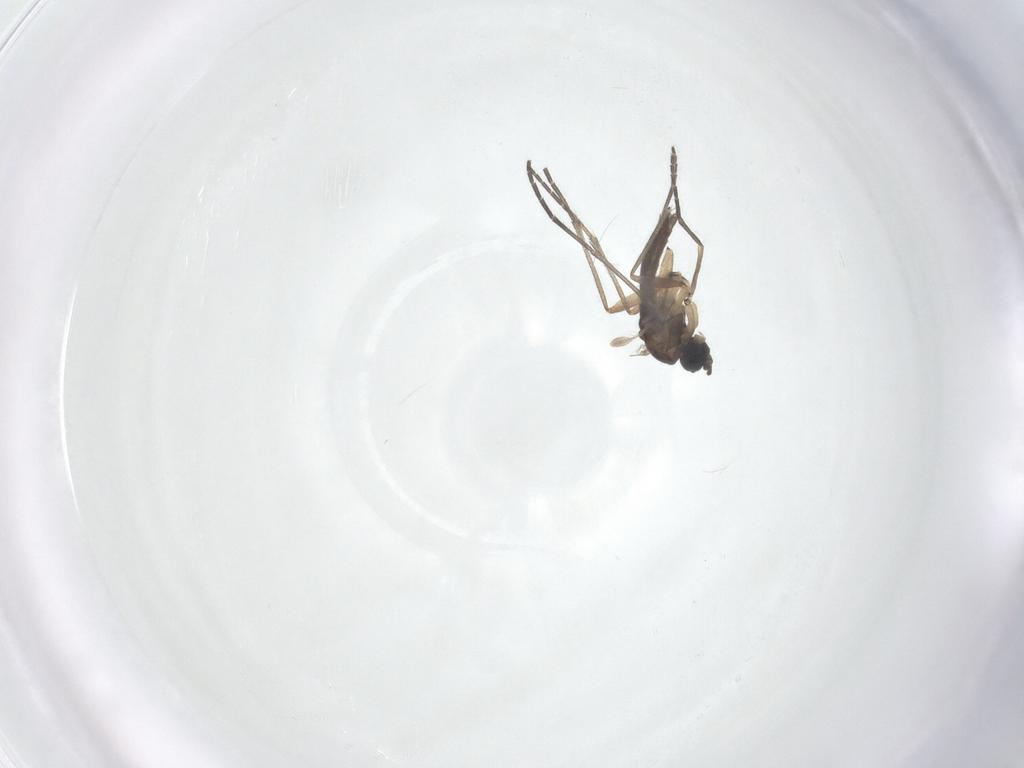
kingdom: Animalia
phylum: Arthropoda
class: Insecta
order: Diptera
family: Sciaridae
